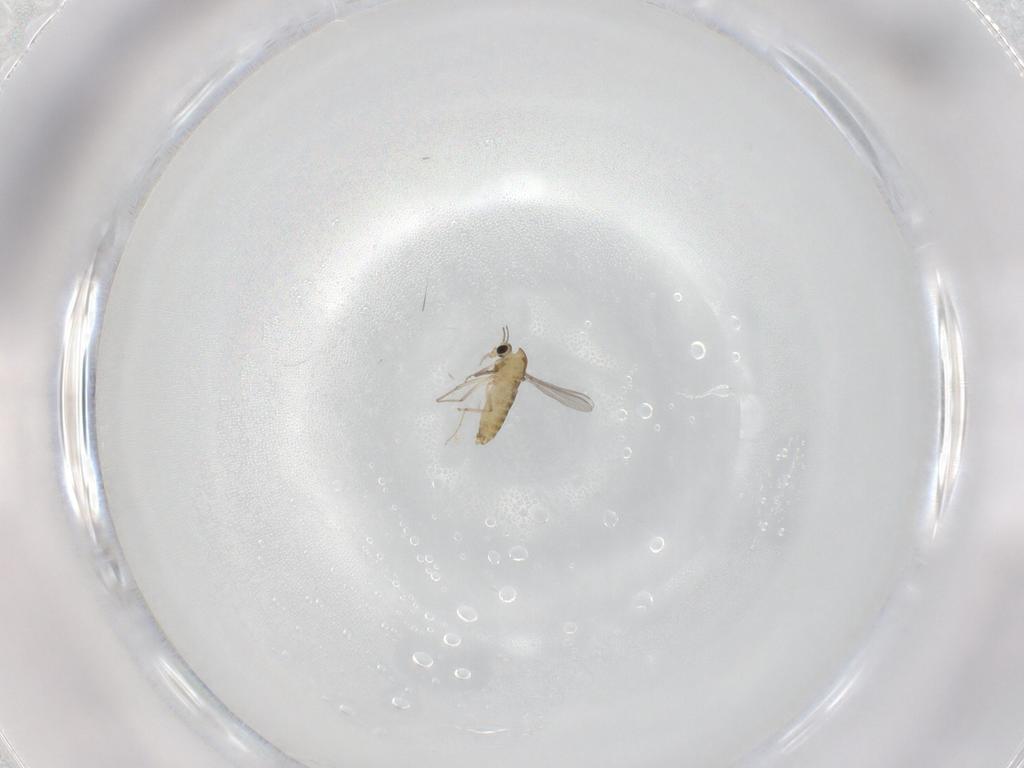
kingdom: Animalia
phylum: Arthropoda
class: Insecta
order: Diptera
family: Chironomidae
